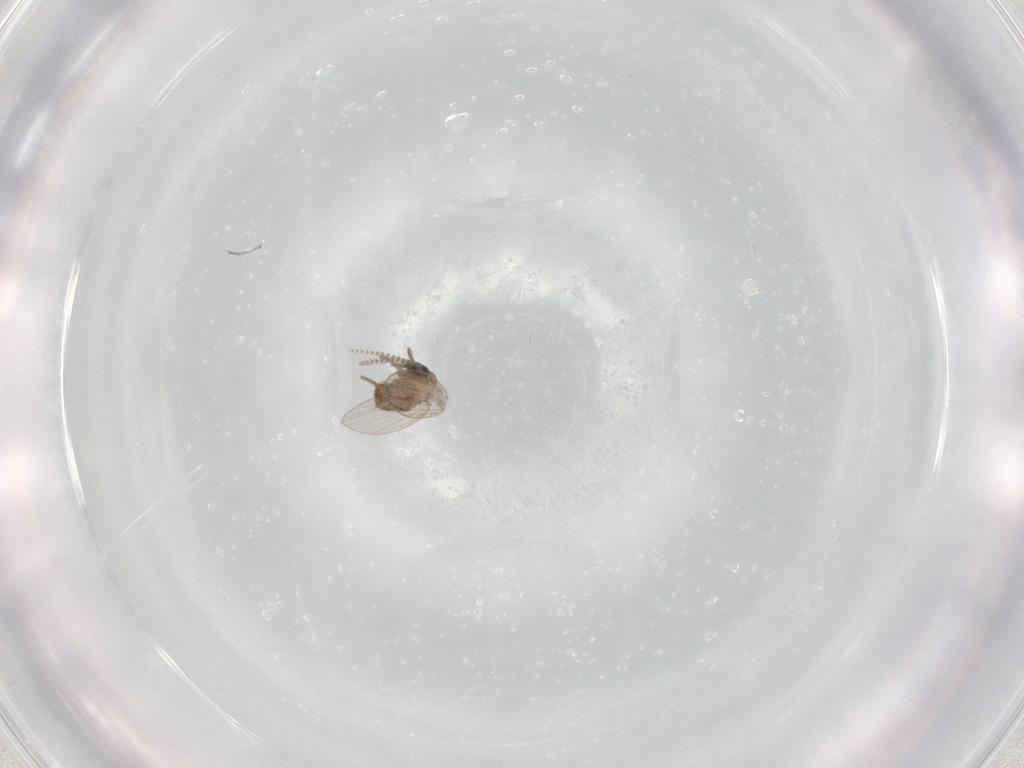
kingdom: Animalia
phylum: Arthropoda
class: Insecta
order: Diptera
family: Psychodidae
